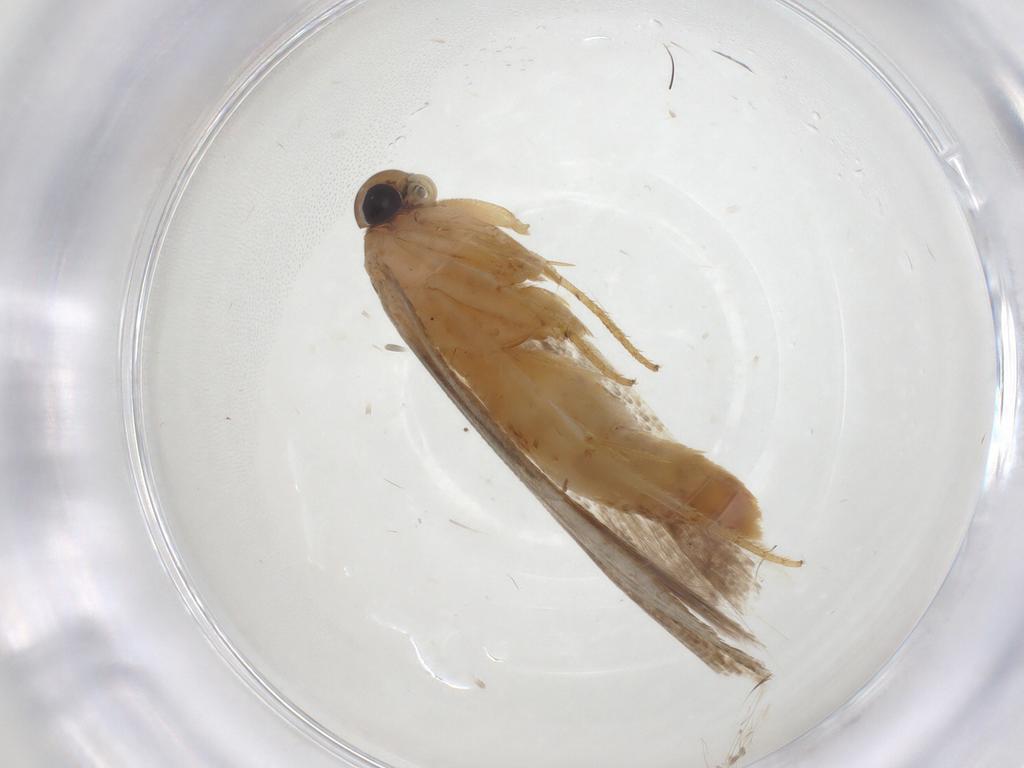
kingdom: Animalia
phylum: Arthropoda
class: Insecta
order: Lepidoptera
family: Gelechiidae
